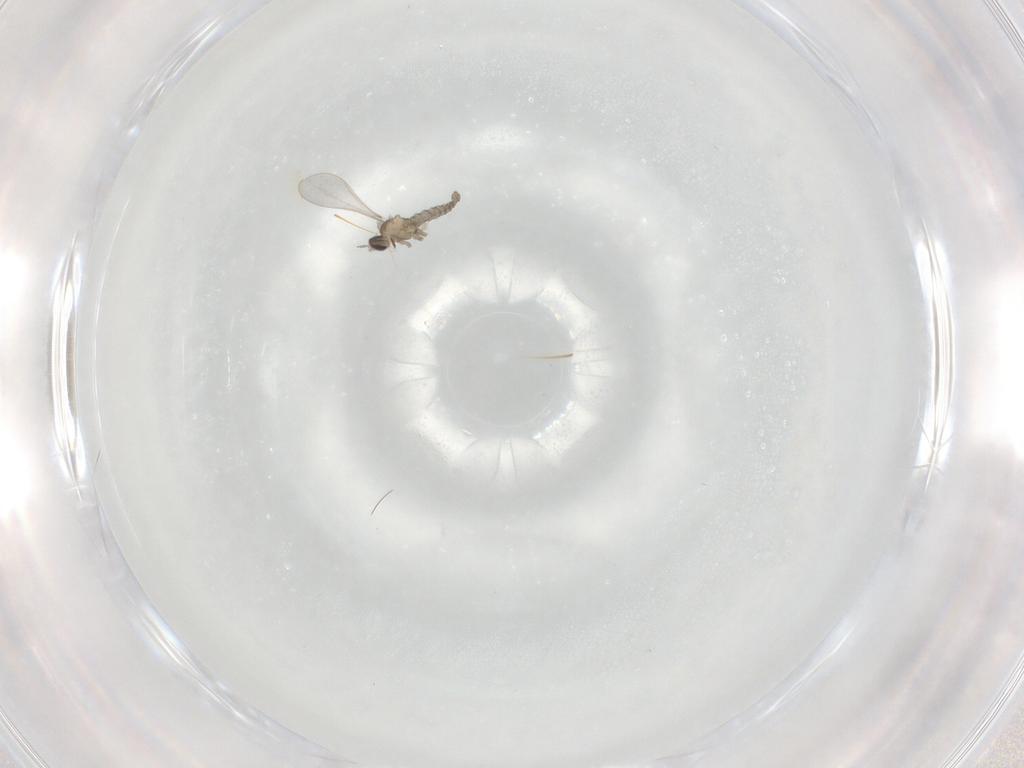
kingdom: Animalia
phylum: Arthropoda
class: Insecta
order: Diptera
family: Cecidomyiidae
